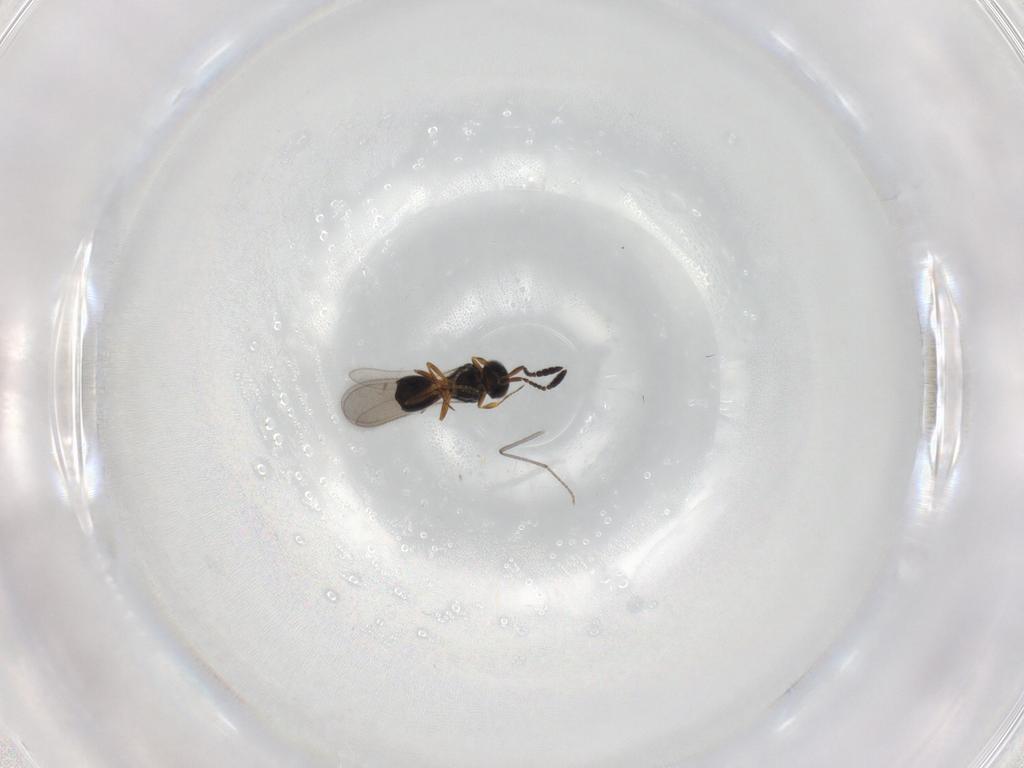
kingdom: Animalia
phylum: Arthropoda
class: Insecta
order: Hymenoptera
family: Scelionidae
